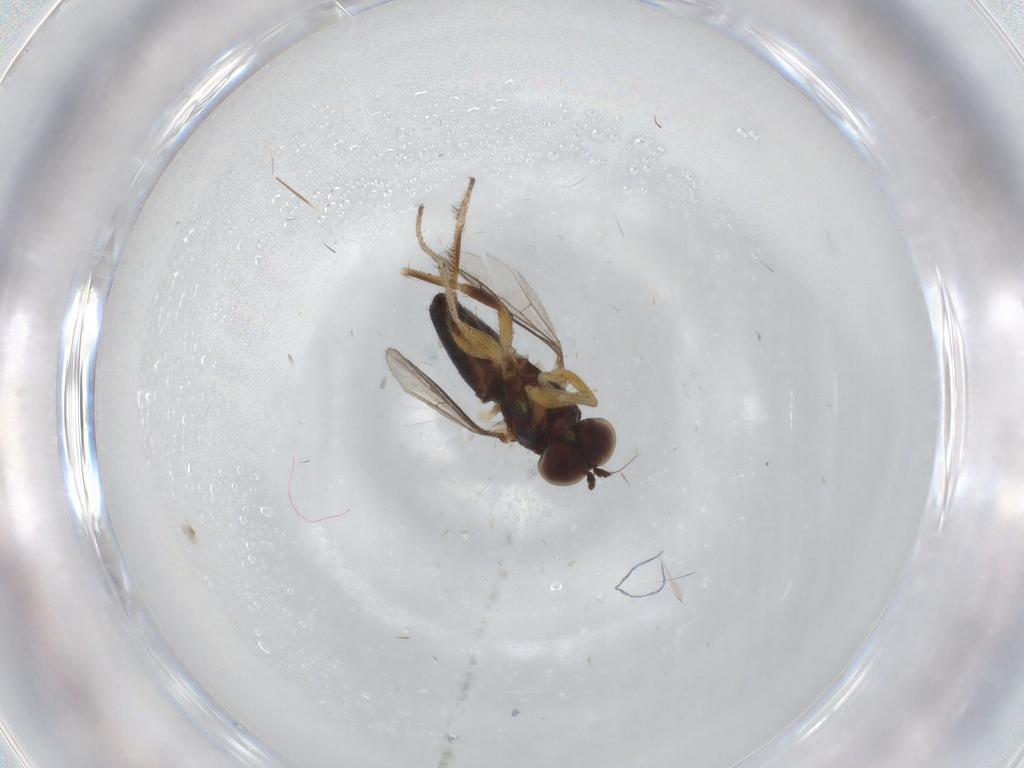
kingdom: Animalia
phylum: Arthropoda
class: Insecta
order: Diptera
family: Dolichopodidae
